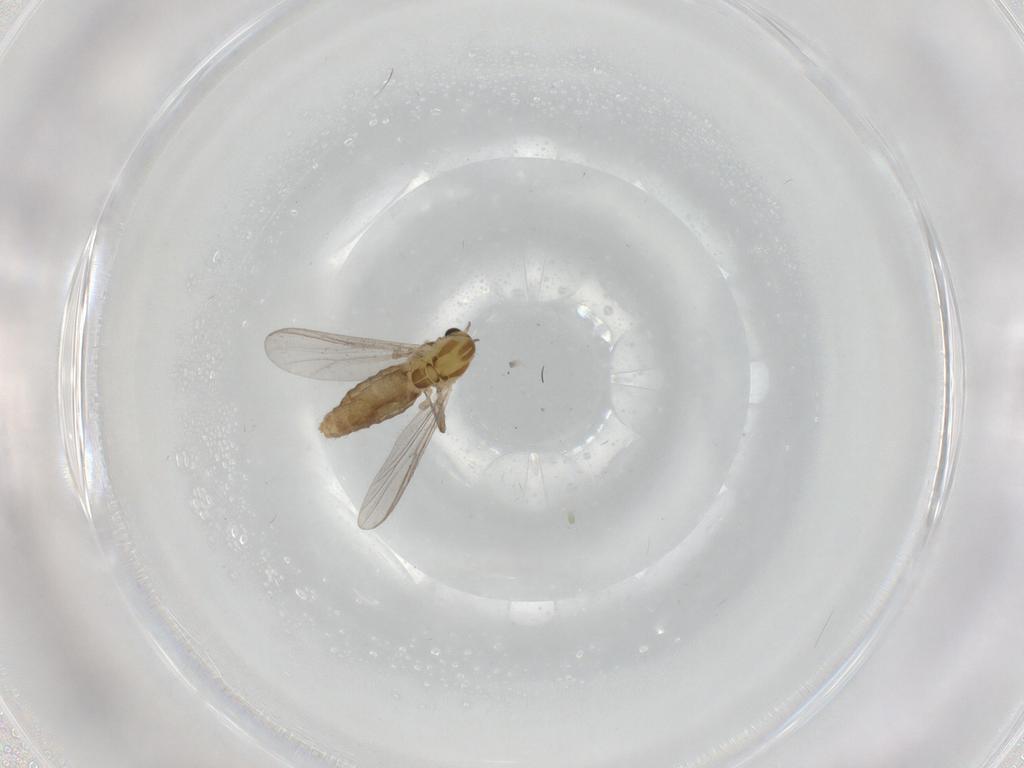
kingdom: Animalia
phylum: Arthropoda
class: Insecta
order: Diptera
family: Chironomidae
